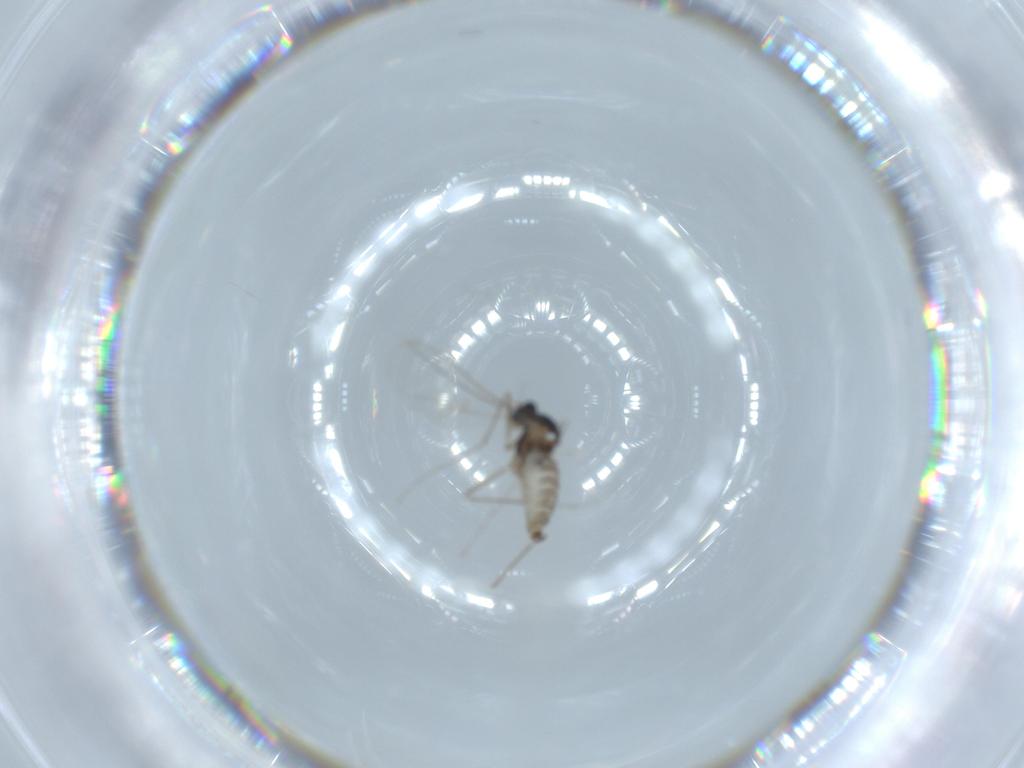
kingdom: Animalia
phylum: Arthropoda
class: Insecta
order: Diptera
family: Cecidomyiidae
